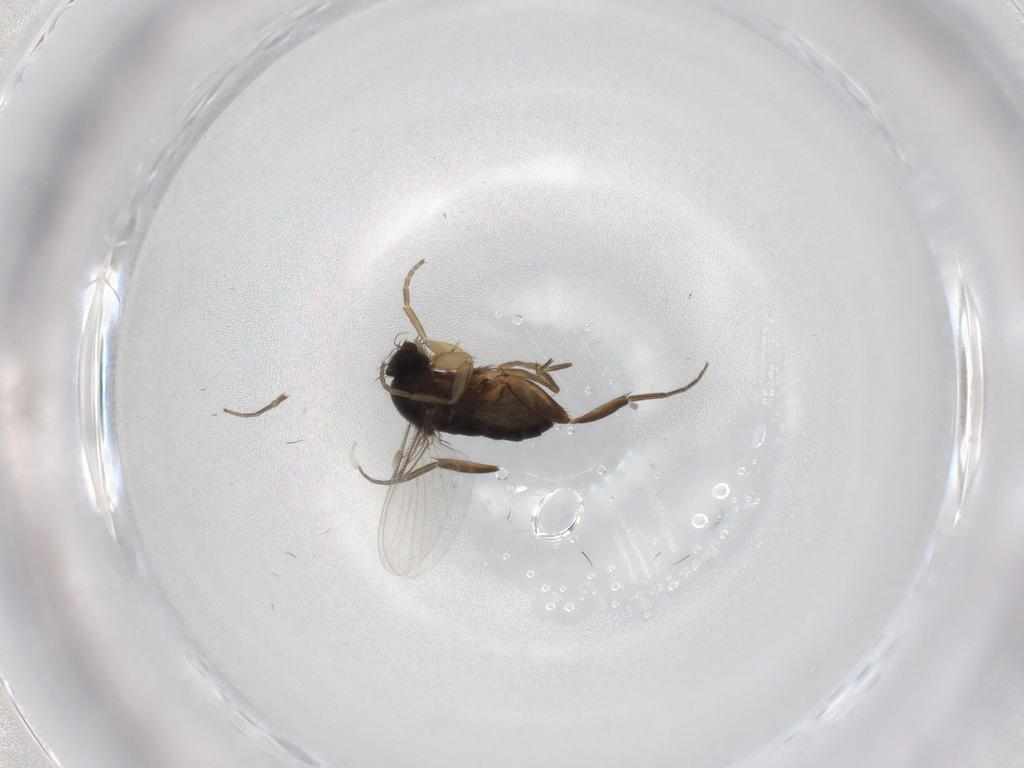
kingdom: Animalia
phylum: Arthropoda
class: Insecta
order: Diptera
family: Phoridae
